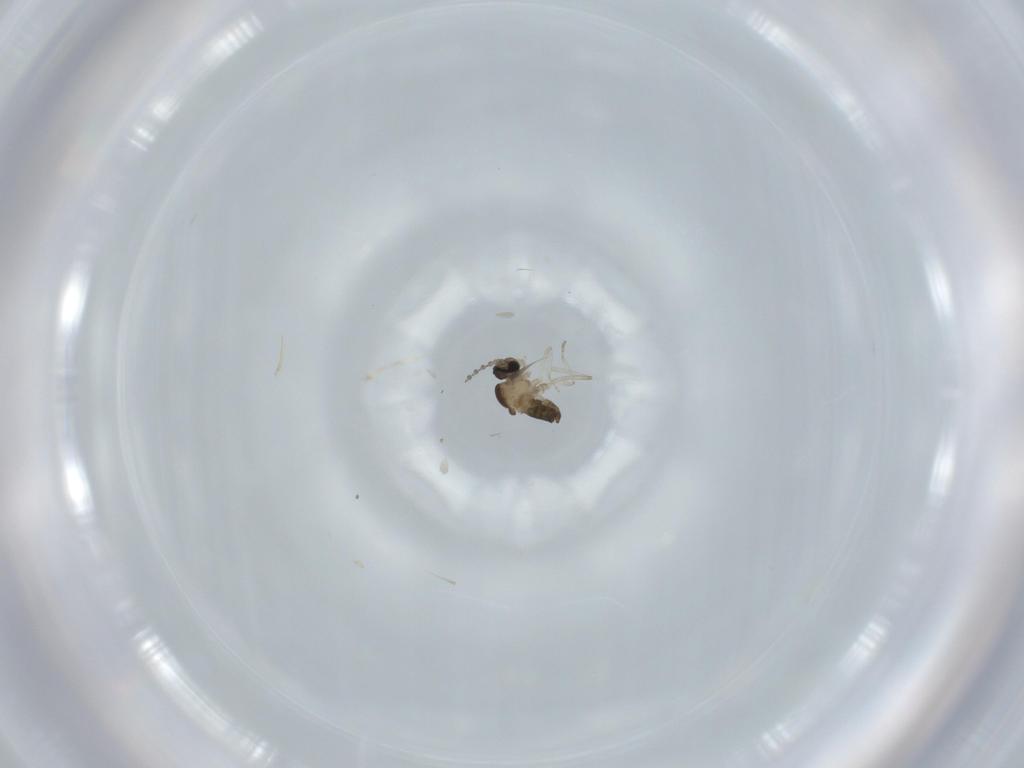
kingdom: Animalia
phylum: Arthropoda
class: Insecta
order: Diptera
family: Cecidomyiidae
